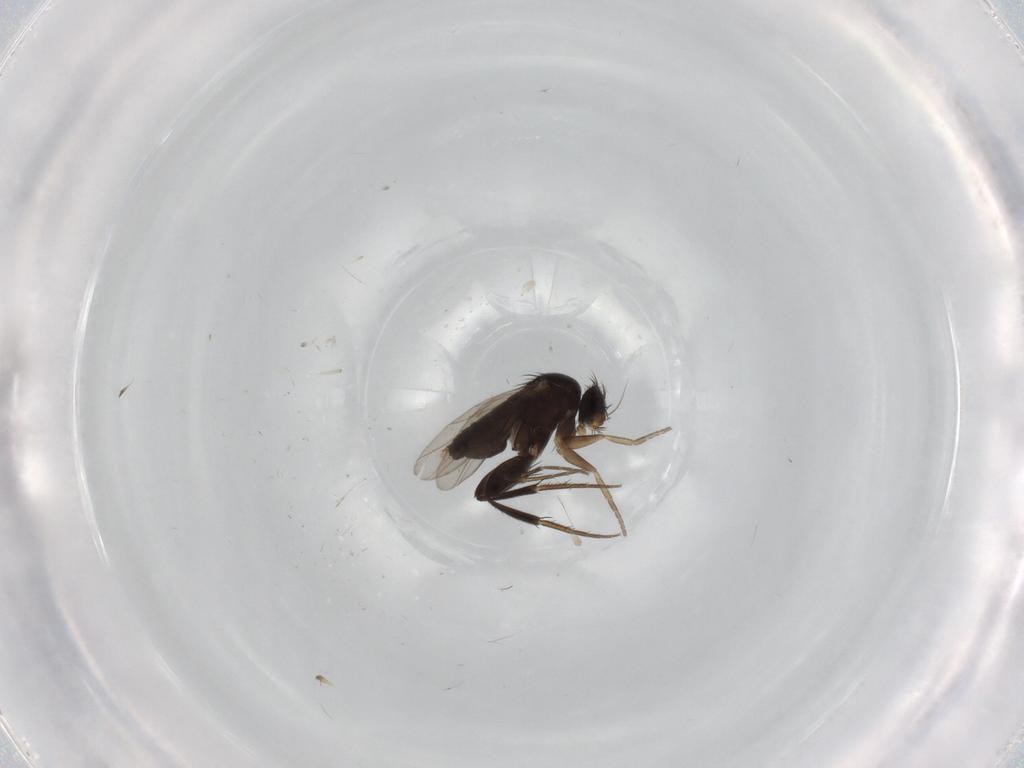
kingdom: Animalia
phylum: Arthropoda
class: Insecta
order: Diptera
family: Phoridae
